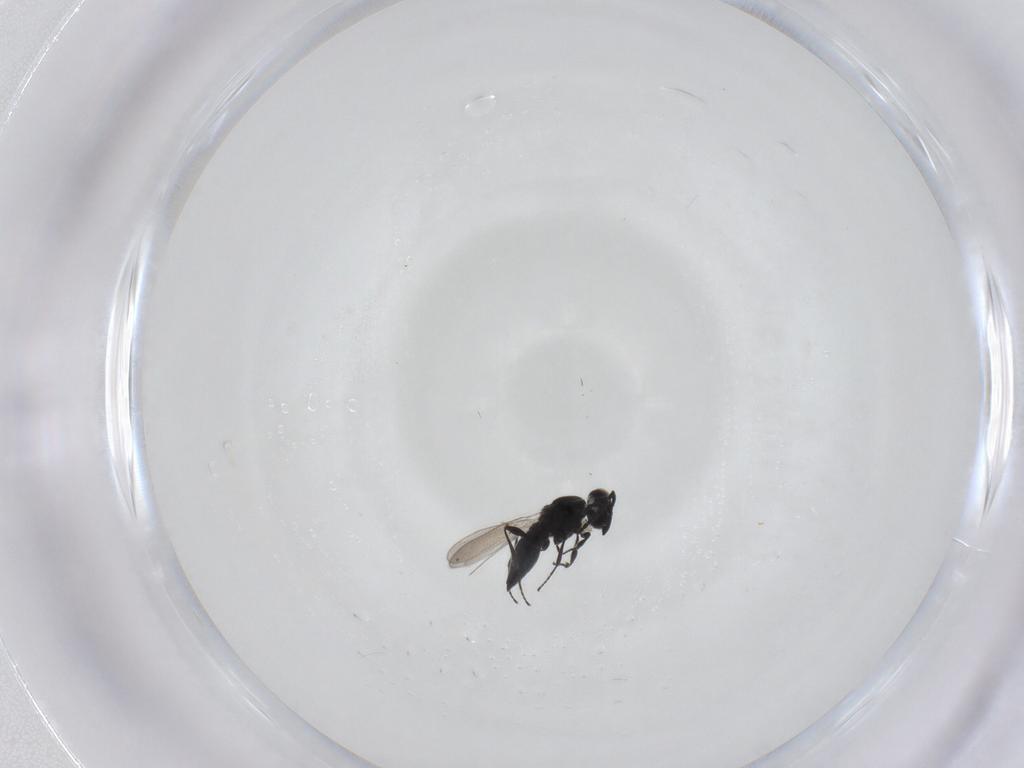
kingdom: Animalia
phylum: Arthropoda
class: Insecta
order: Hymenoptera
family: Platygastridae
